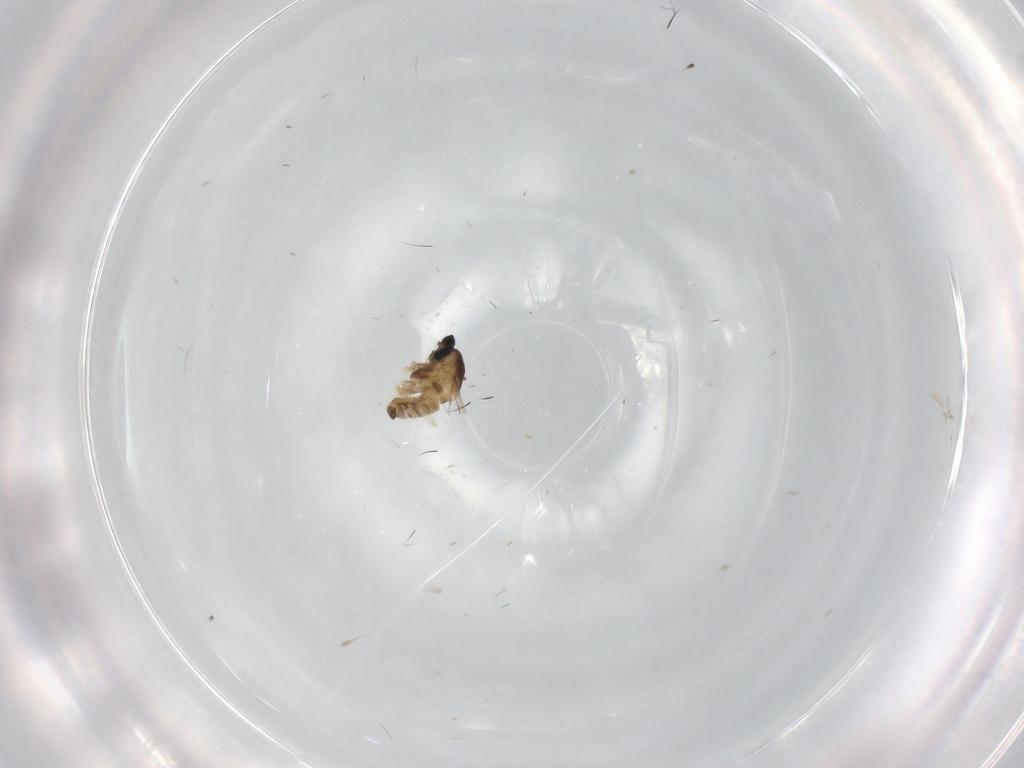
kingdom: Animalia
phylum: Arthropoda
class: Insecta
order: Diptera
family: Cecidomyiidae
